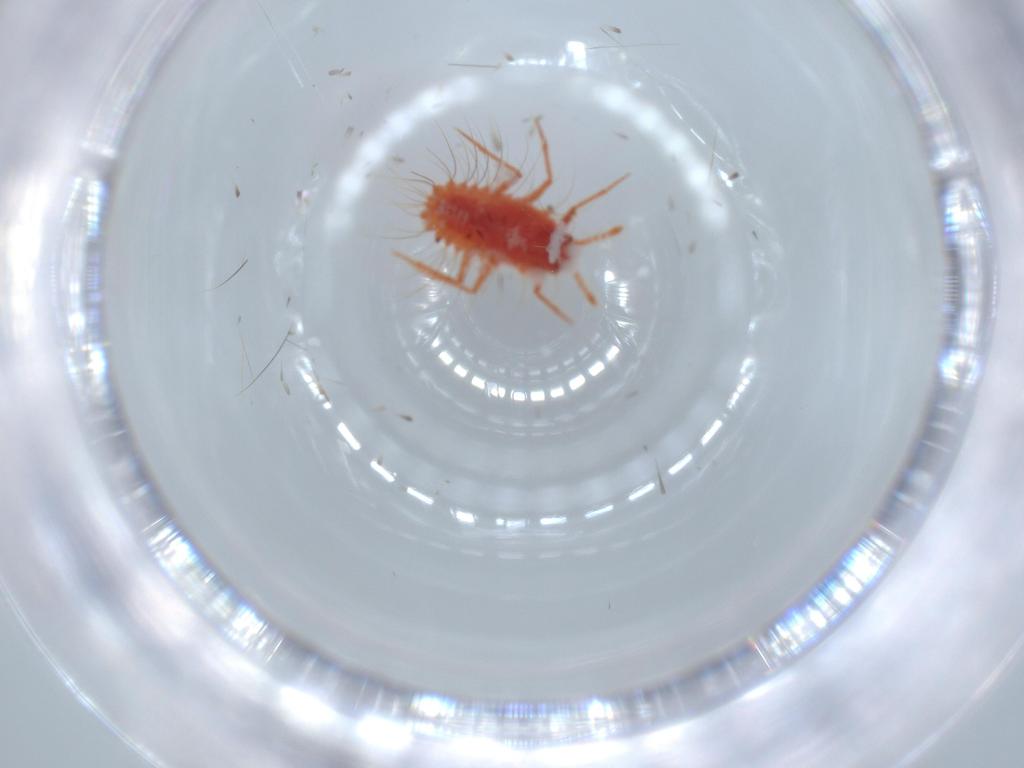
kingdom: Animalia
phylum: Arthropoda
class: Insecta
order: Hemiptera
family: Monophlebidae
